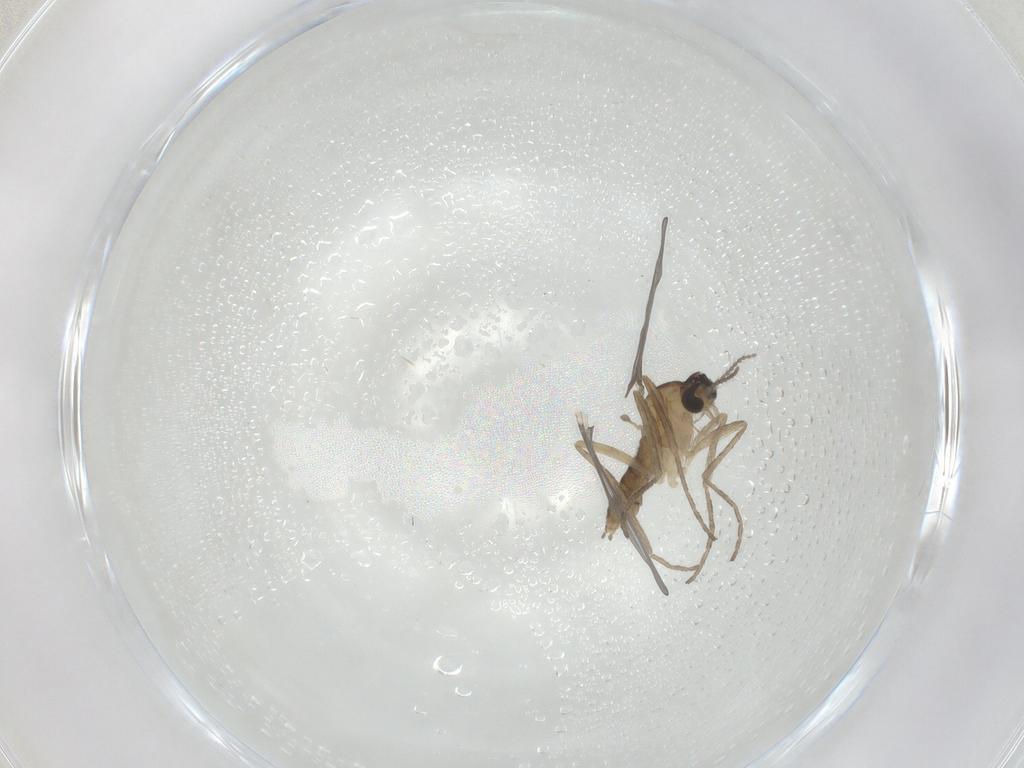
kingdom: Animalia
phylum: Arthropoda
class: Insecta
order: Diptera
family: Cecidomyiidae
